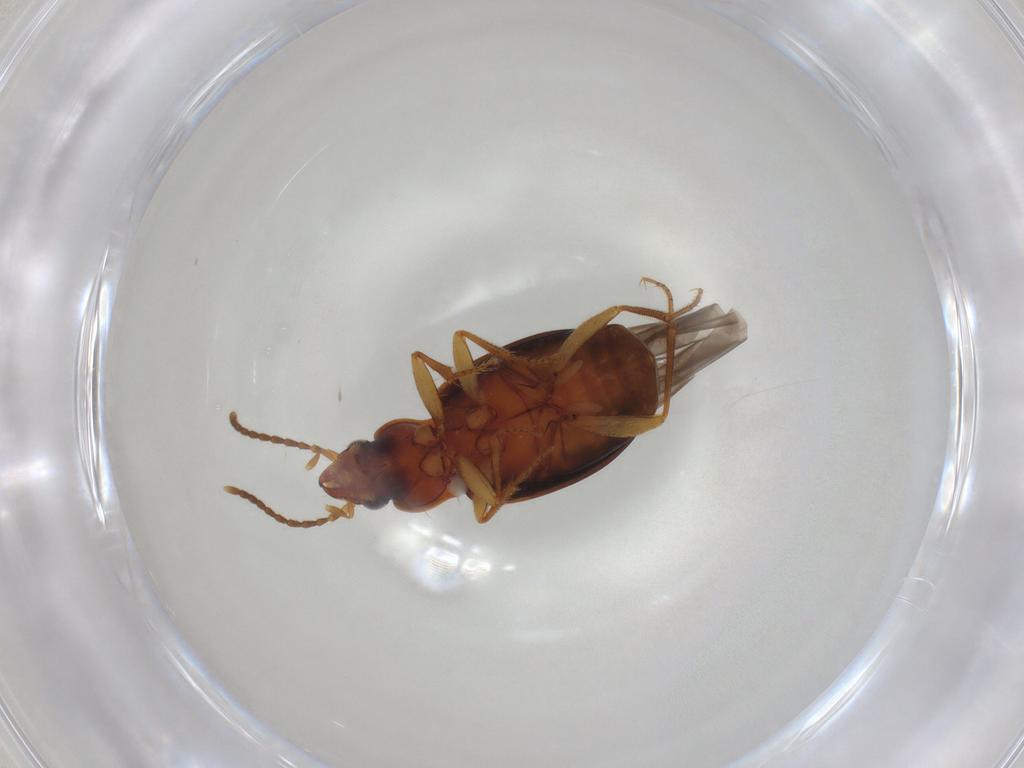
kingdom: Animalia
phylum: Arthropoda
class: Insecta
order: Coleoptera
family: Carabidae
